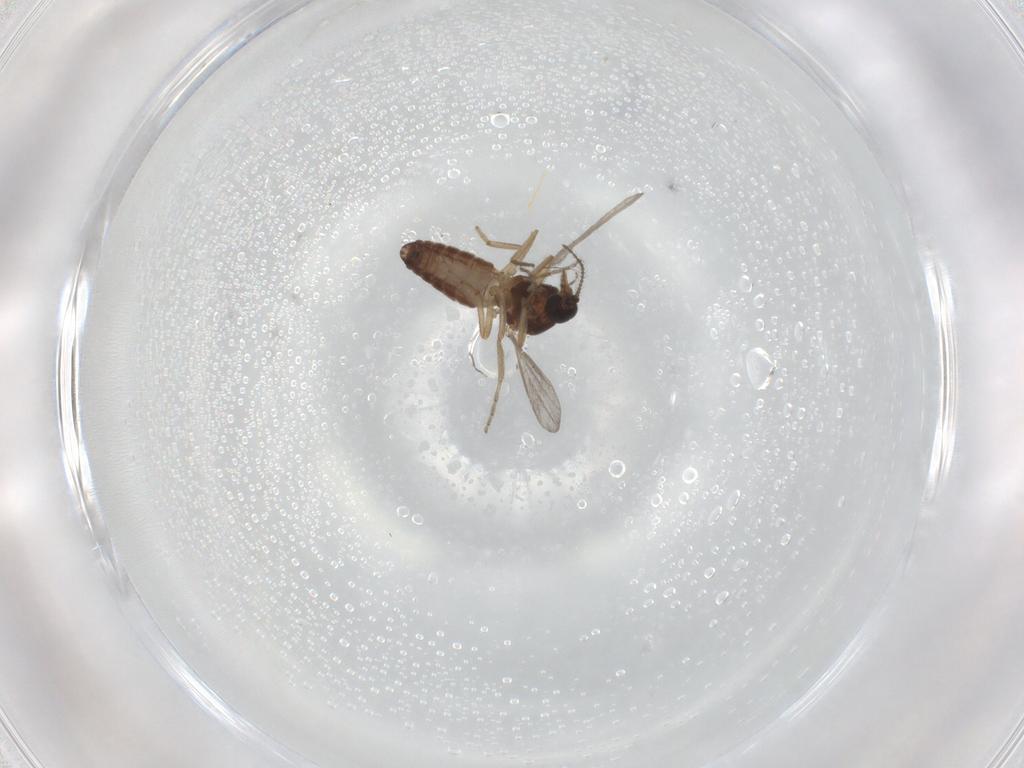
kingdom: Animalia
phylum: Arthropoda
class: Insecta
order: Diptera
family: Ceratopogonidae
